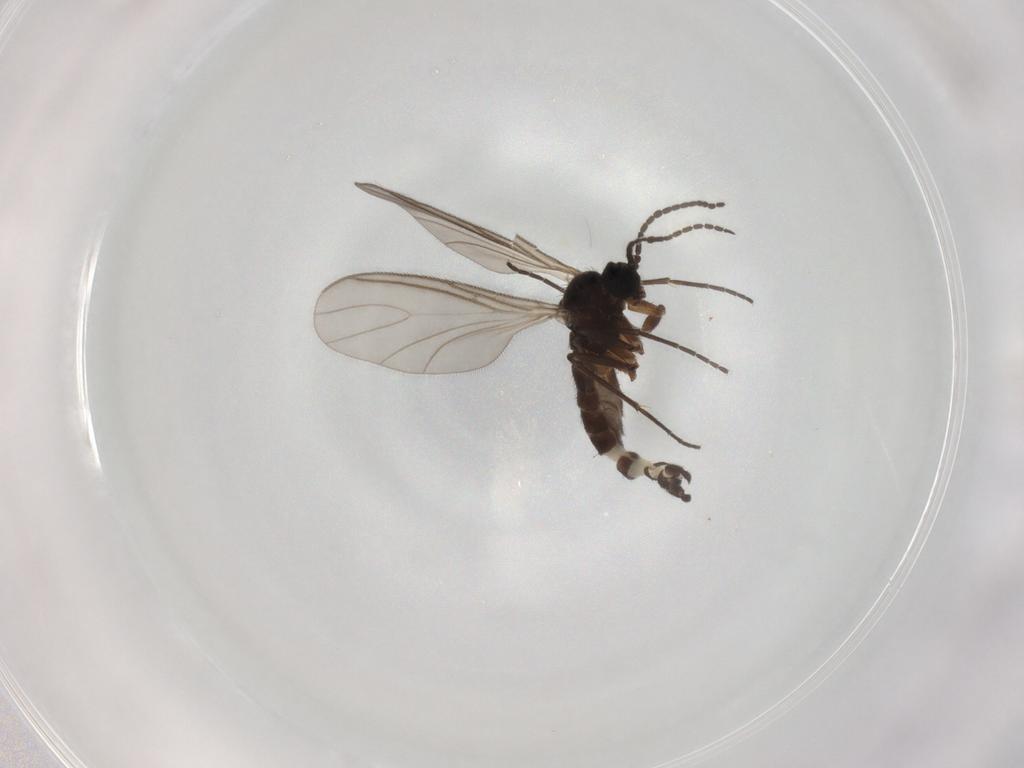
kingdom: Animalia
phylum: Arthropoda
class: Insecta
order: Diptera
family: Sciaridae
